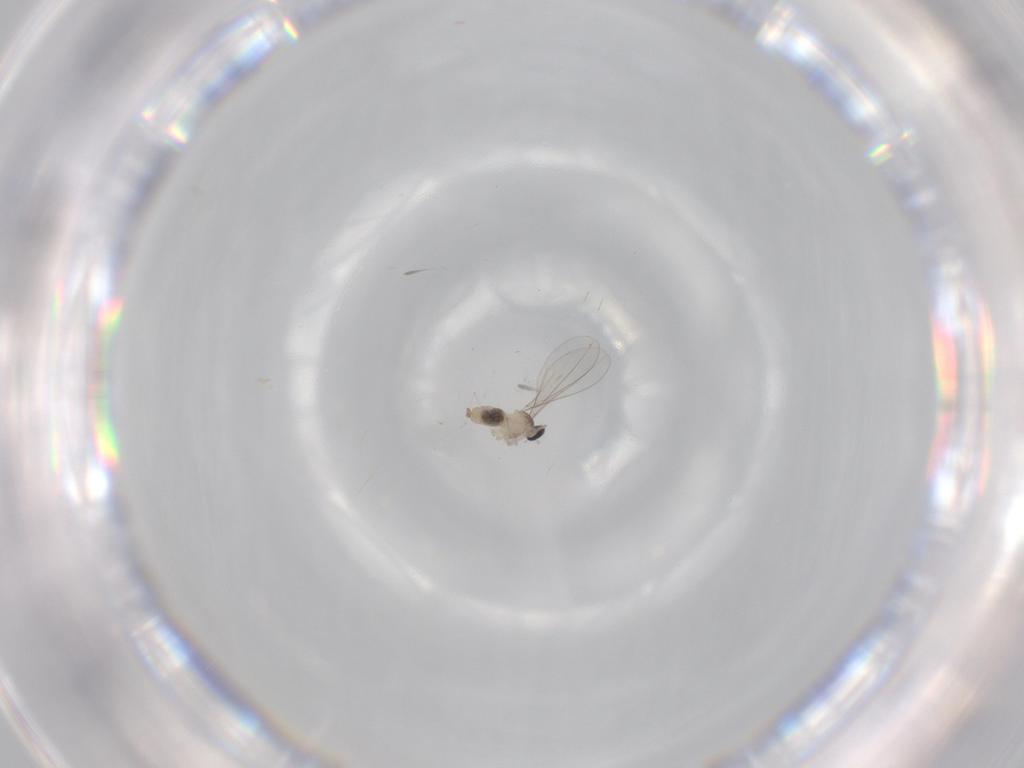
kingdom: Animalia
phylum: Arthropoda
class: Insecta
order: Diptera
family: Cecidomyiidae
